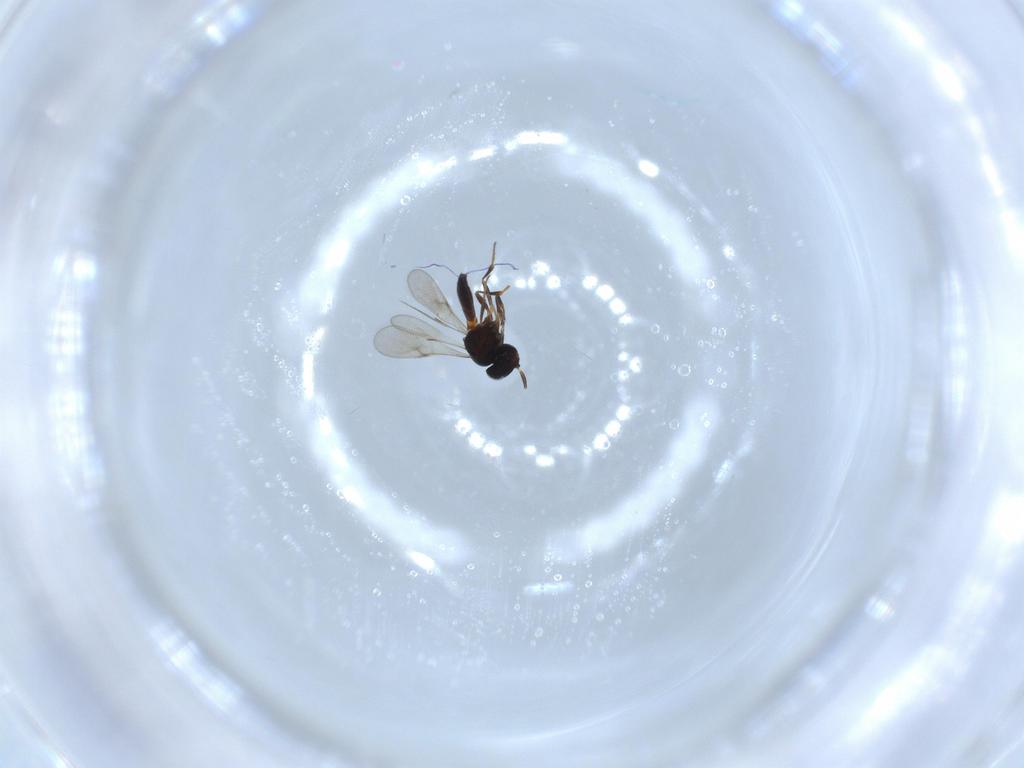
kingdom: Animalia
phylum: Arthropoda
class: Insecta
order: Hymenoptera
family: Scelionidae
